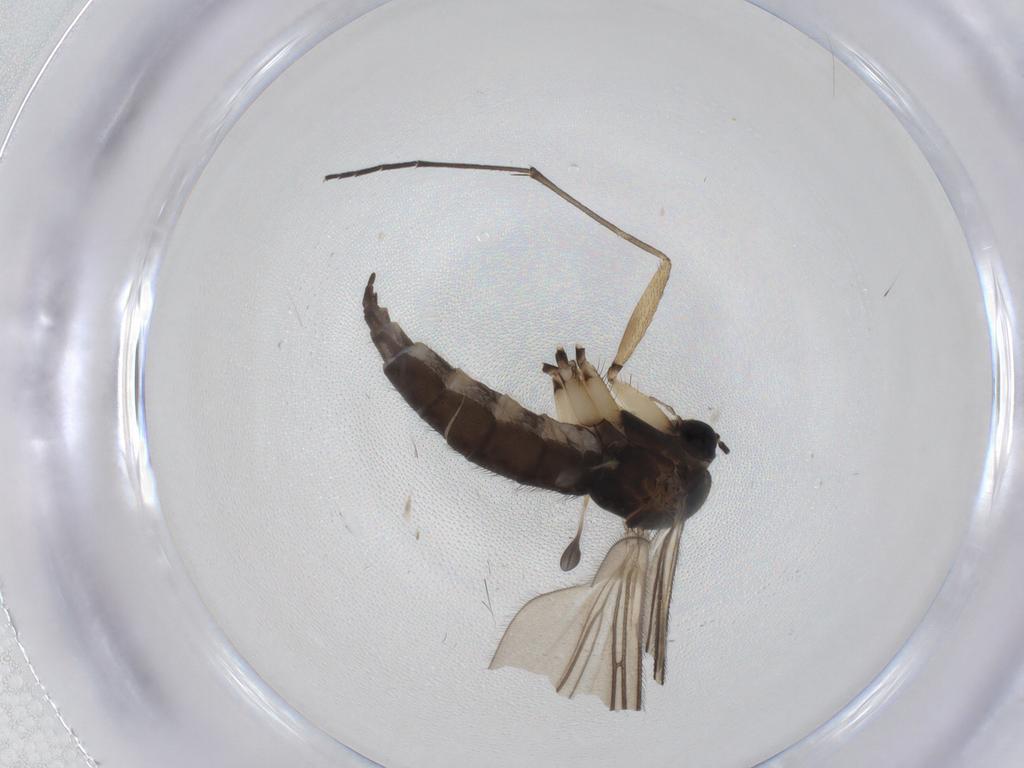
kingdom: Animalia
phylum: Arthropoda
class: Insecta
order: Diptera
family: Sciaridae
